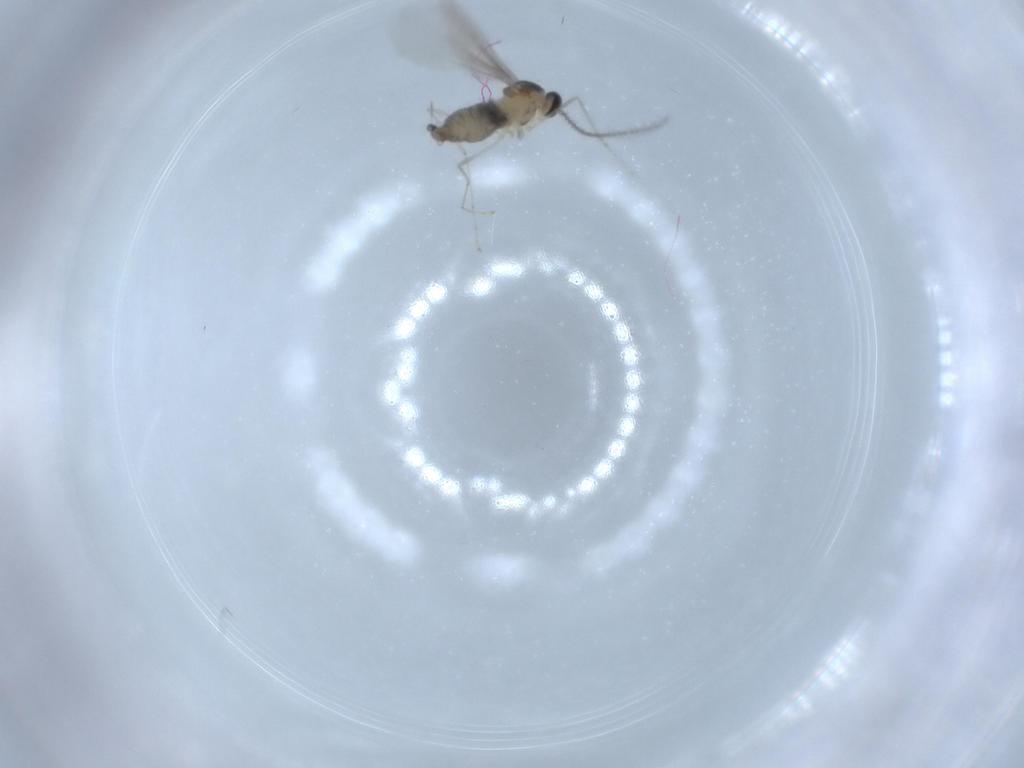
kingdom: Animalia
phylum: Arthropoda
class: Insecta
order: Diptera
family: Cecidomyiidae
